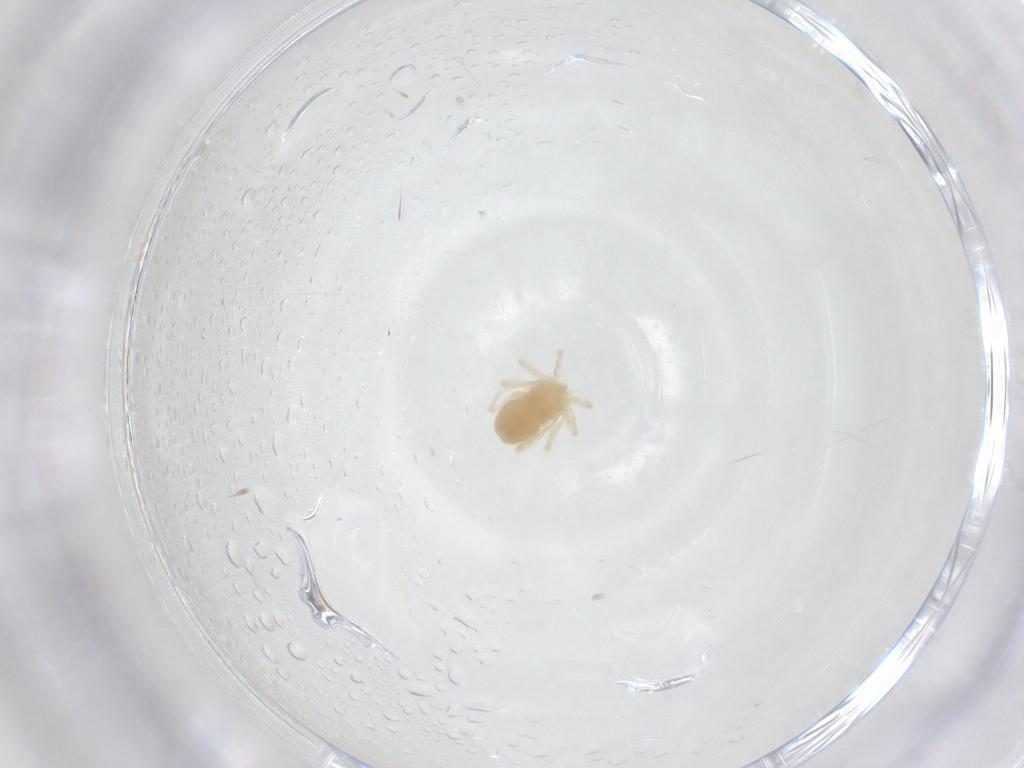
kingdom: Animalia
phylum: Arthropoda
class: Arachnida
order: Trombidiformes
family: Anystidae
